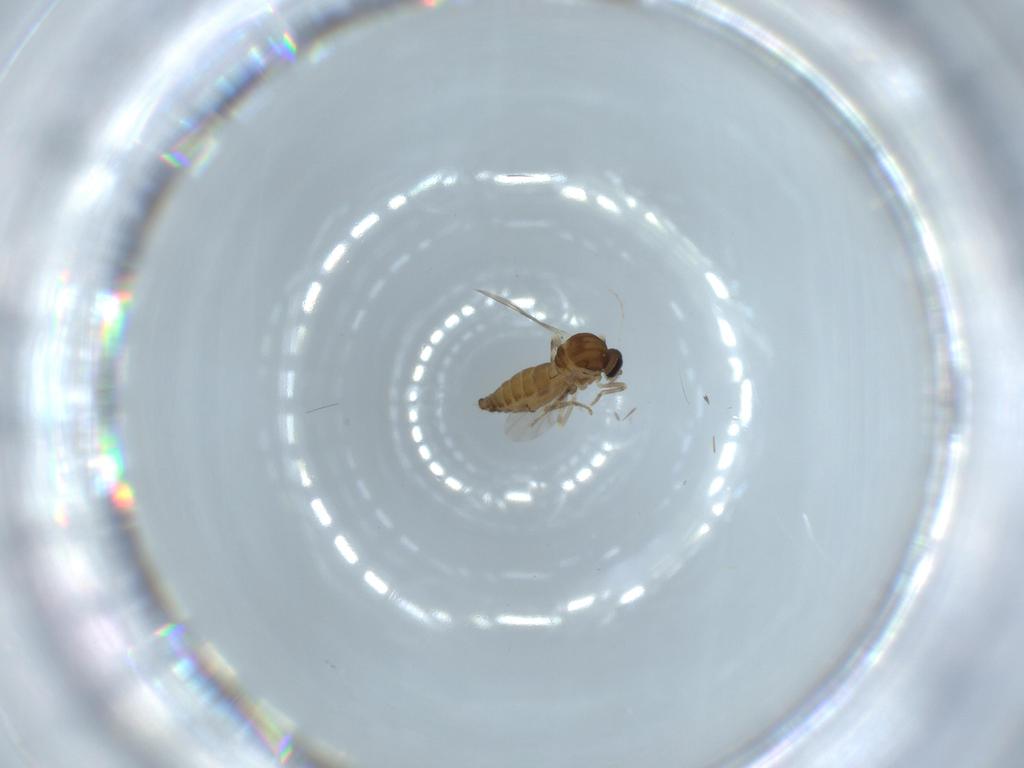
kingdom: Animalia
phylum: Arthropoda
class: Insecta
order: Diptera
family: Ceratopogonidae
